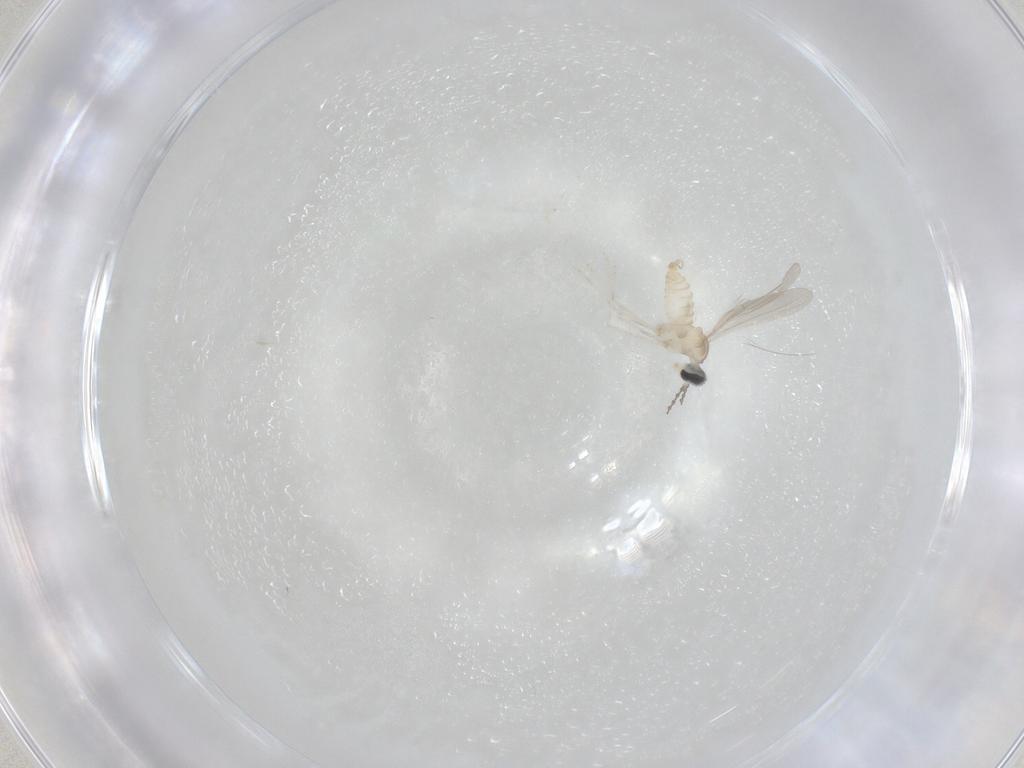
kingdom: Animalia
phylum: Arthropoda
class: Insecta
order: Diptera
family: Cecidomyiidae
